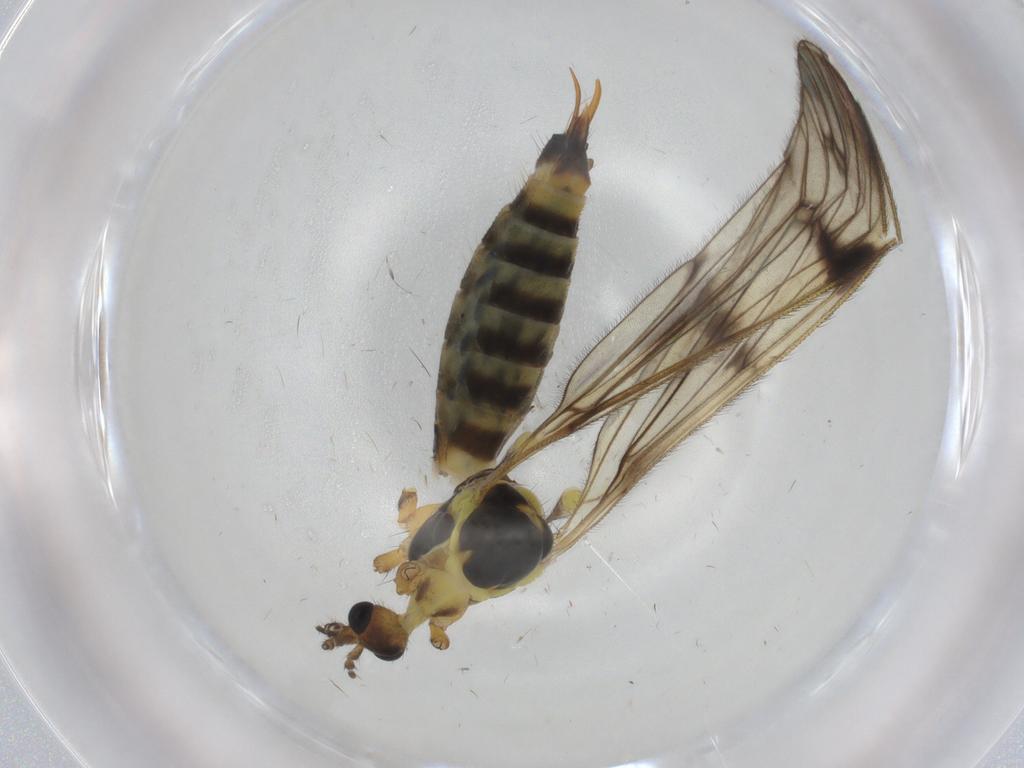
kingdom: Animalia
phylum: Arthropoda
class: Insecta
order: Diptera
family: Limoniidae
